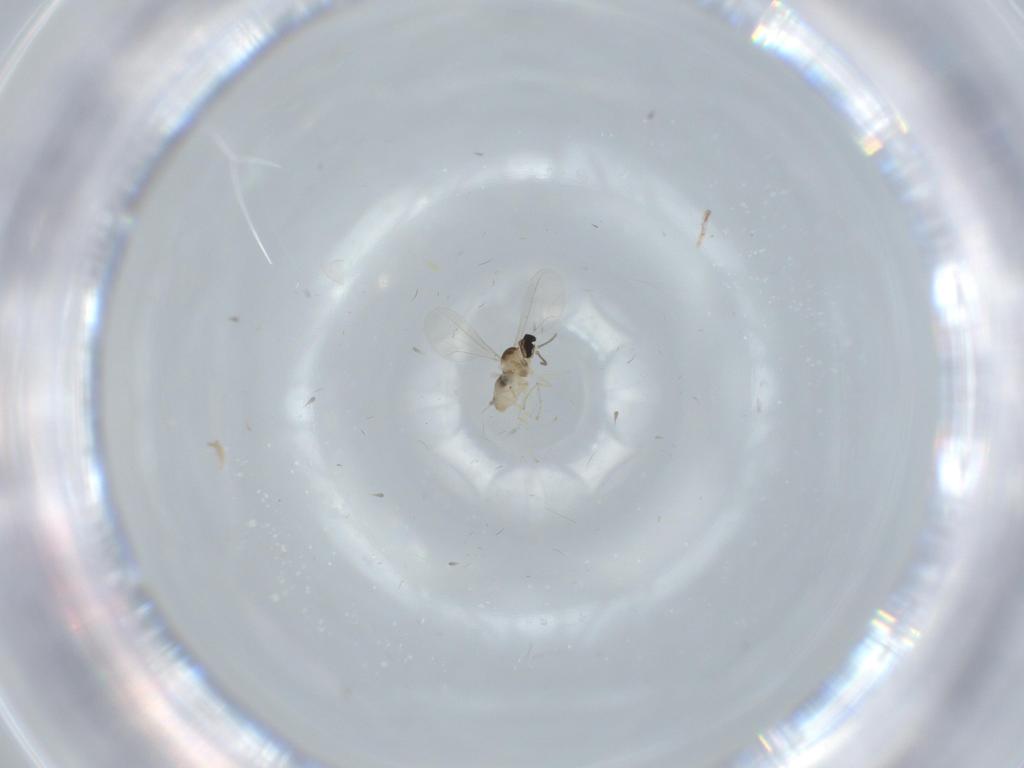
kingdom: Animalia
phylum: Arthropoda
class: Insecta
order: Diptera
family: Cecidomyiidae
